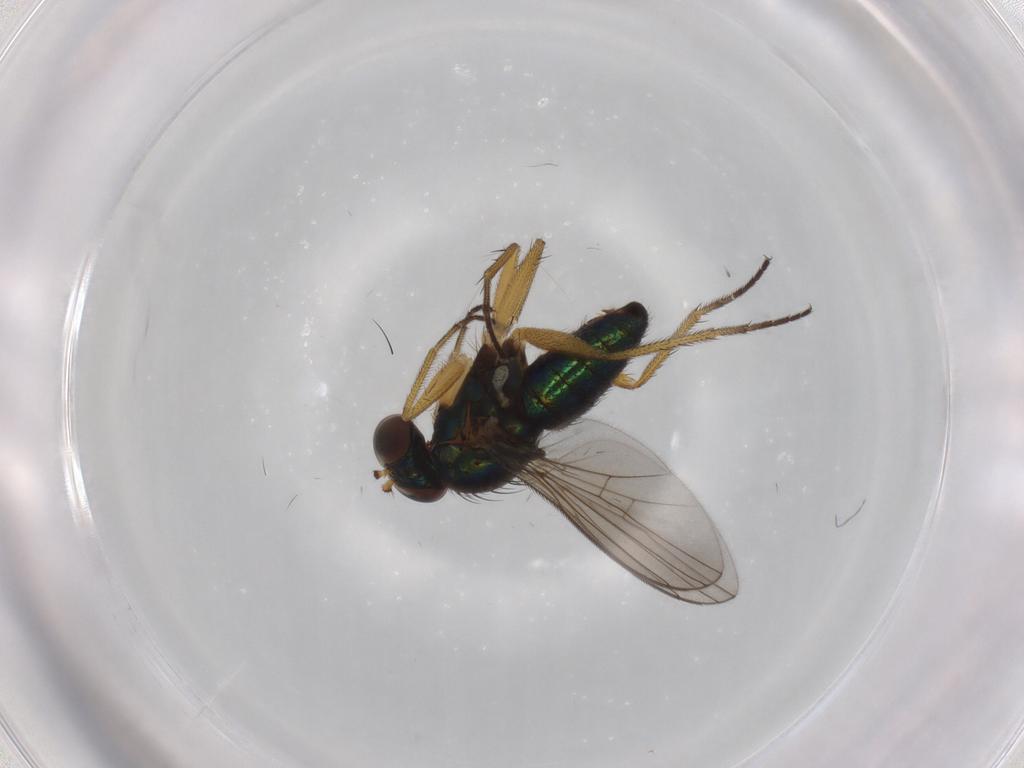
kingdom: Animalia
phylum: Arthropoda
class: Insecta
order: Diptera
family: Dolichopodidae
